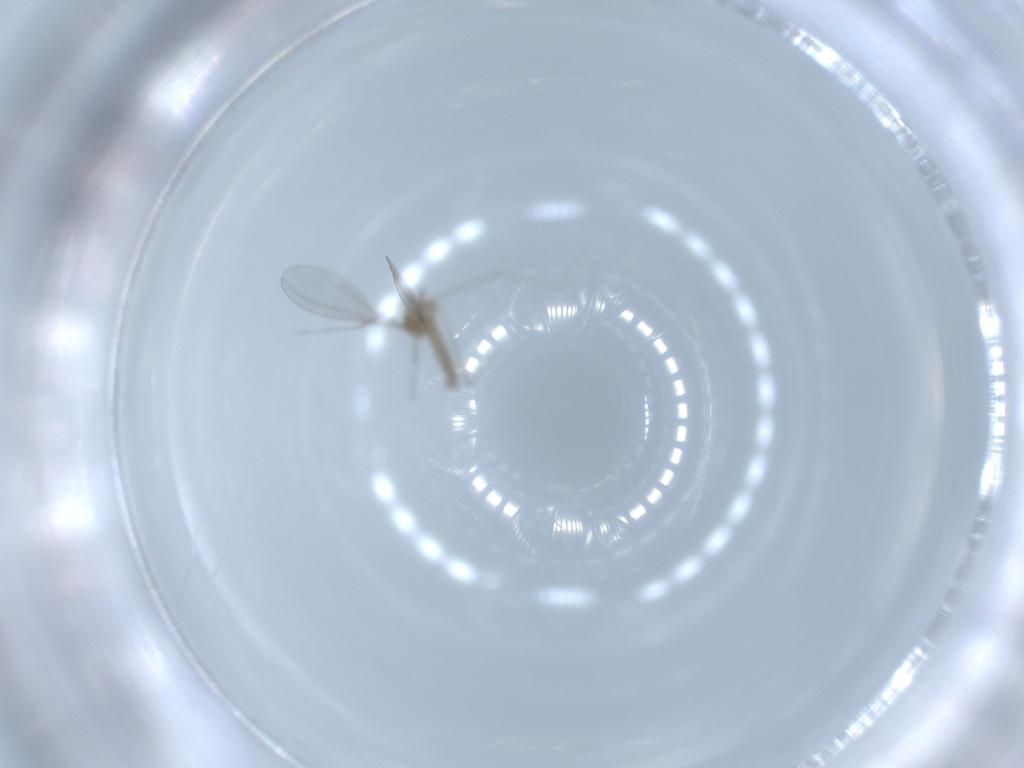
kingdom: Animalia
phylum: Arthropoda
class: Insecta
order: Diptera
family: Cecidomyiidae
